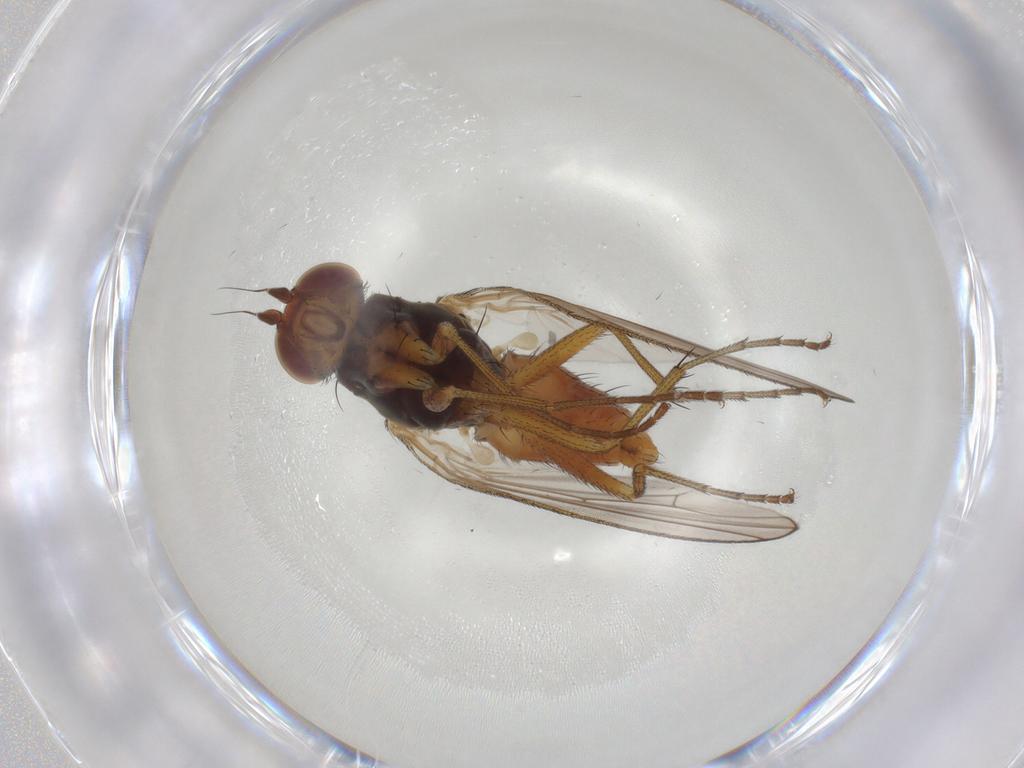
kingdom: Animalia
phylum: Arthropoda
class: Insecta
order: Diptera
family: Heleomyzidae
